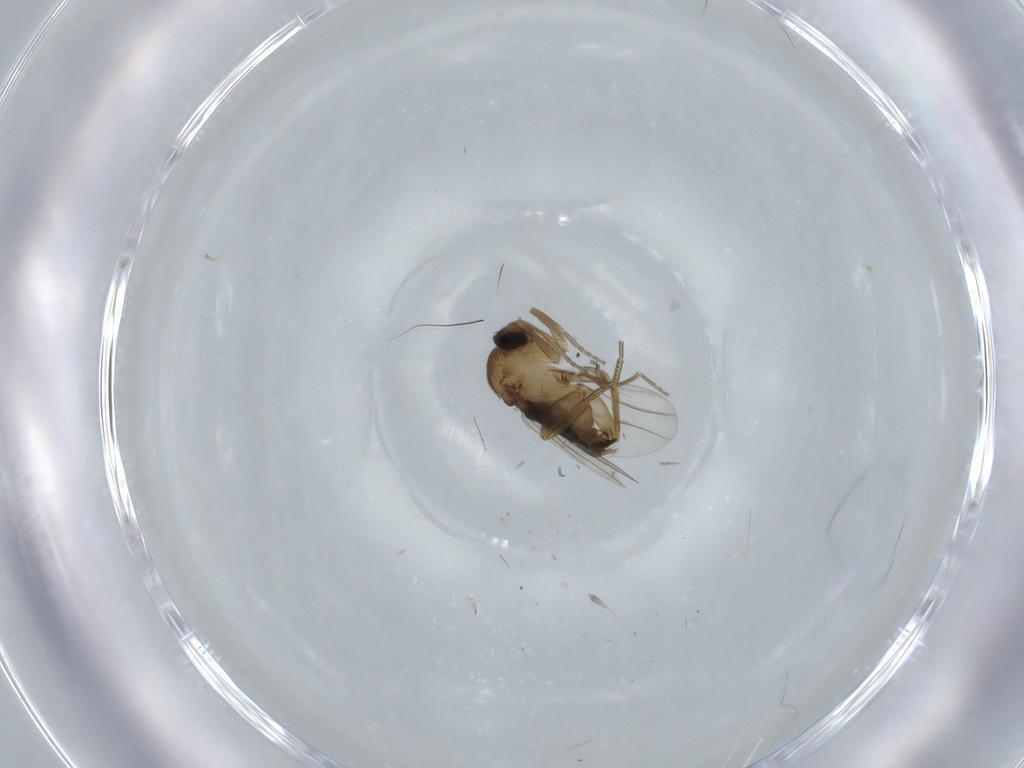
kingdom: Animalia
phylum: Arthropoda
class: Insecta
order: Diptera
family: Phoridae
